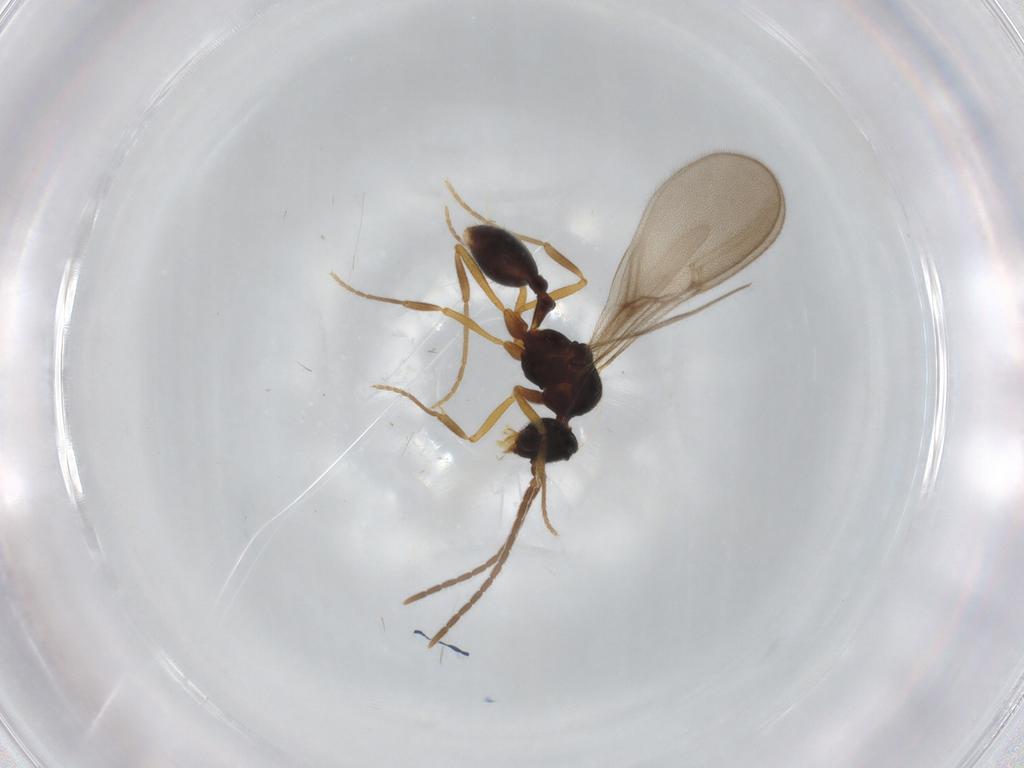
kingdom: Animalia
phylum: Arthropoda
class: Insecta
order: Hymenoptera
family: Formicidae
